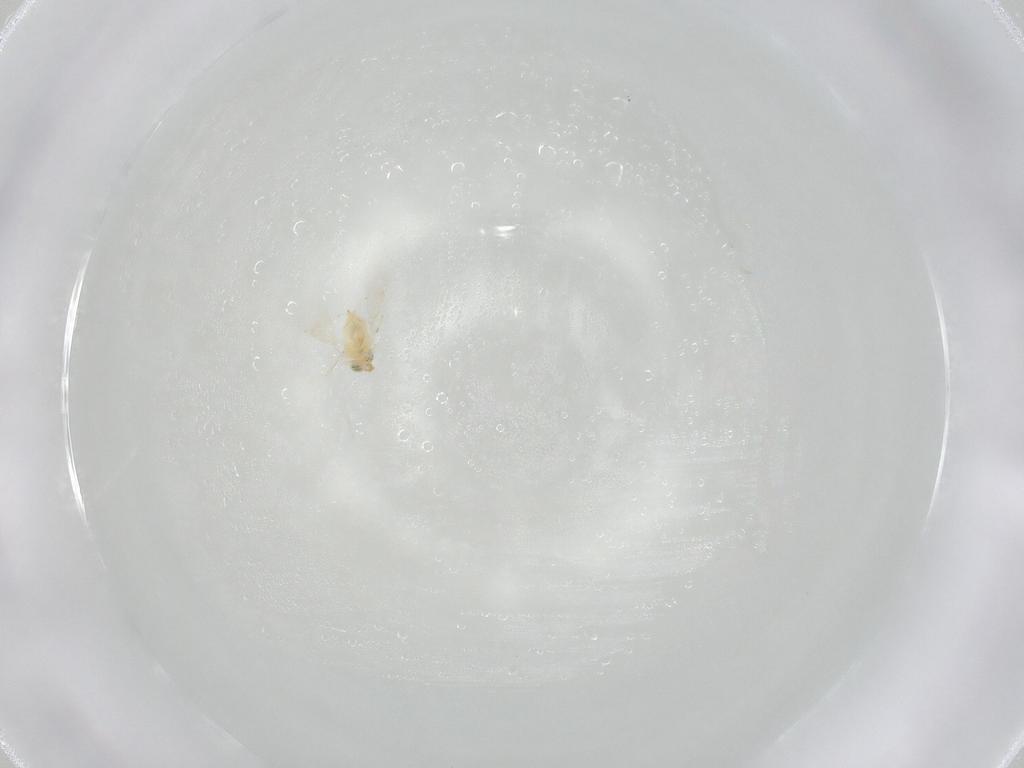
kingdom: Animalia
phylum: Arthropoda
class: Insecta
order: Hymenoptera
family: Aphelinidae
